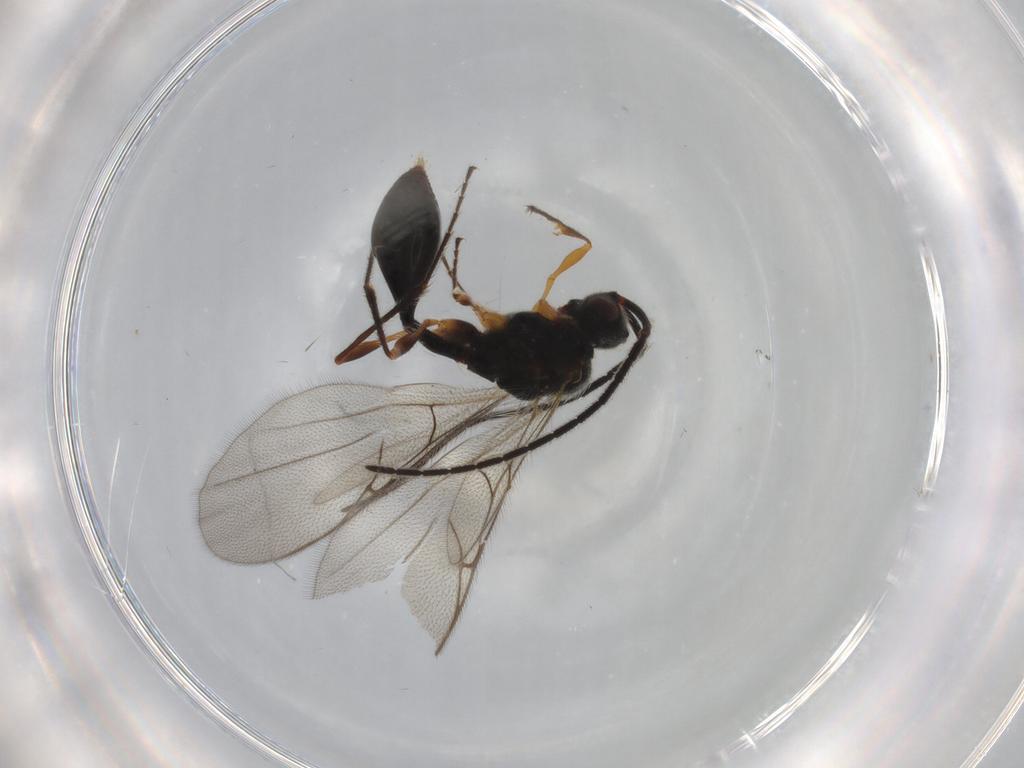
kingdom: Animalia
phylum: Arthropoda
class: Insecta
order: Hymenoptera
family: Diapriidae
